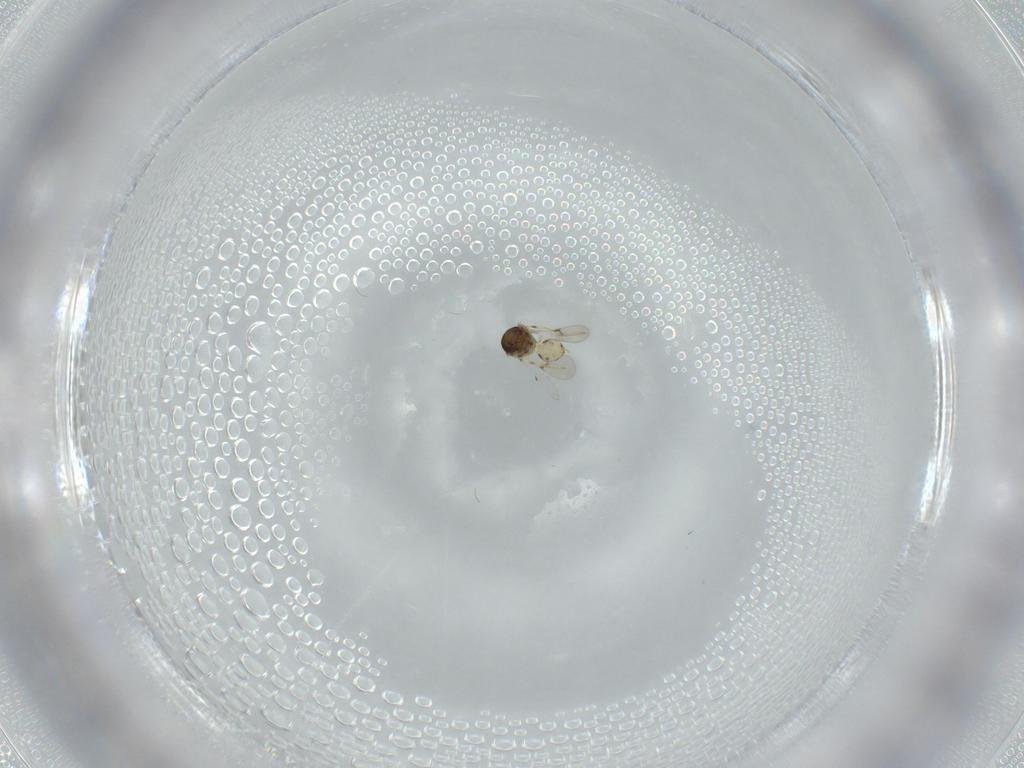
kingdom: Animalia
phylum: Arthropoda
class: Insecta
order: Hymenoptera
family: Scelionidae
